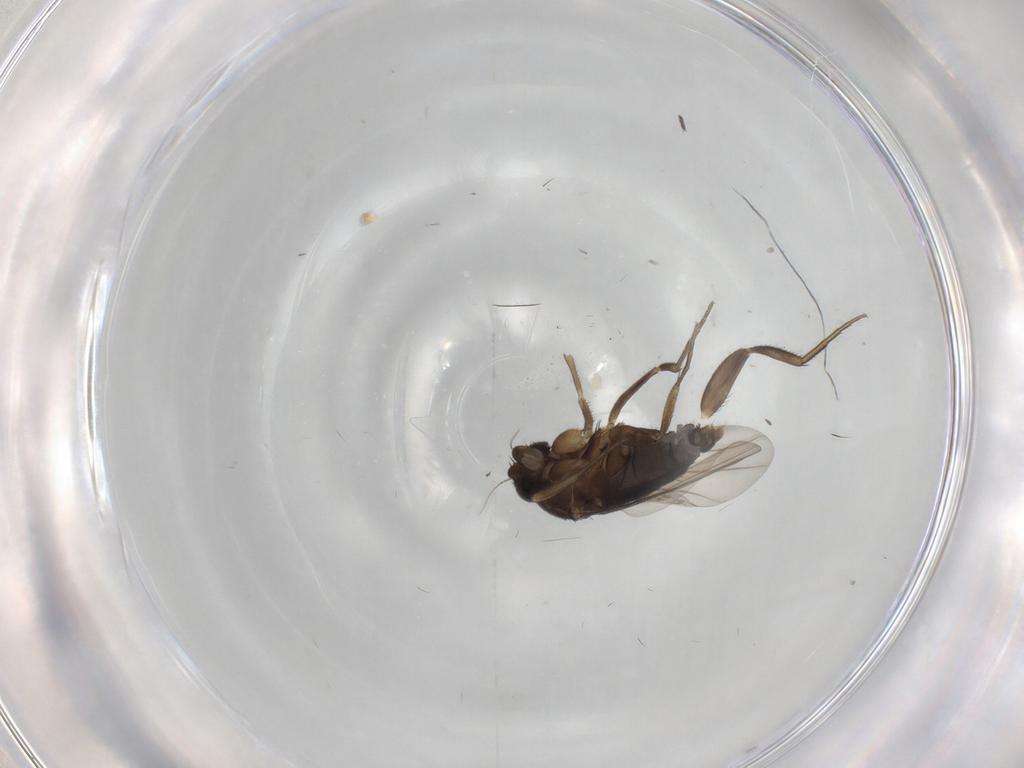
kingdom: Animalia
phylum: Arthropoda
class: Insecta
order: Diptera
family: Phoridae
